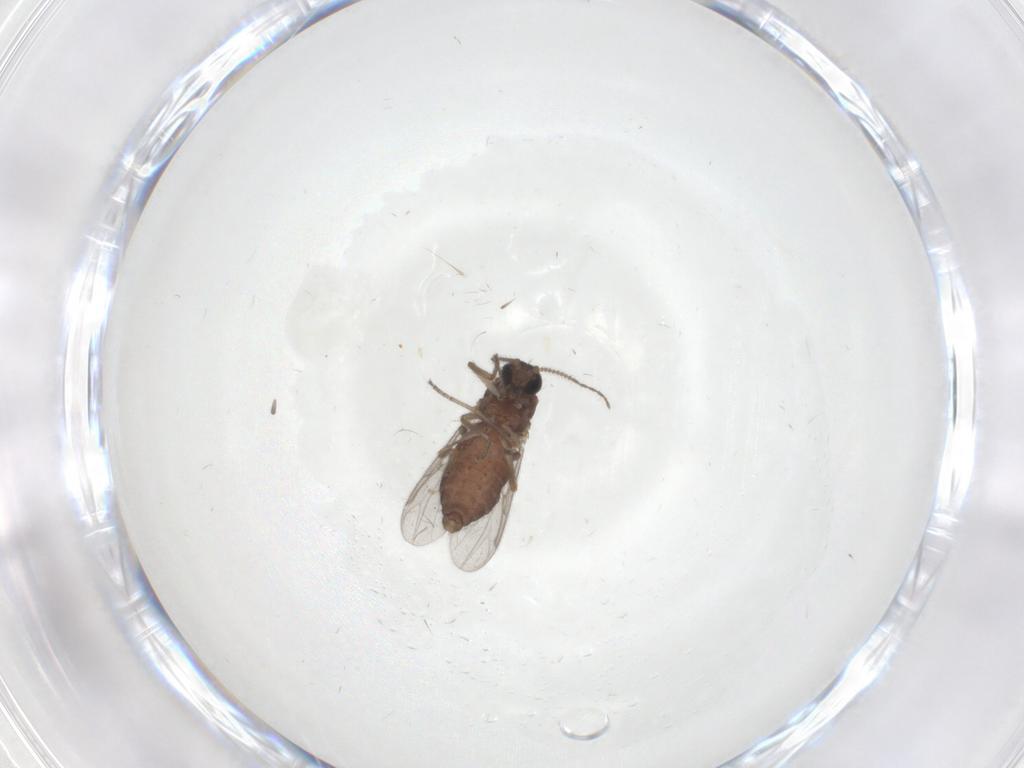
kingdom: Animalia
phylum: Arthropoda
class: Insecta
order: Diptera
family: Ceratopogonidae
